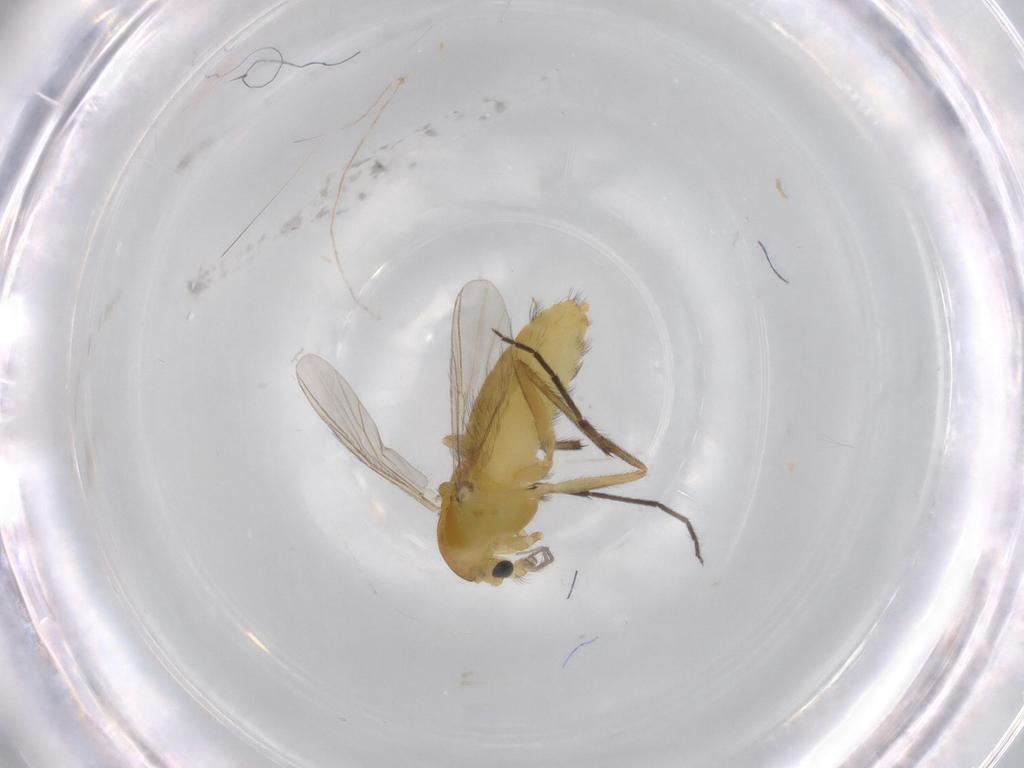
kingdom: Animalia
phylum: Arthropoda
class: Insecta
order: Diptera
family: Chironomidae
